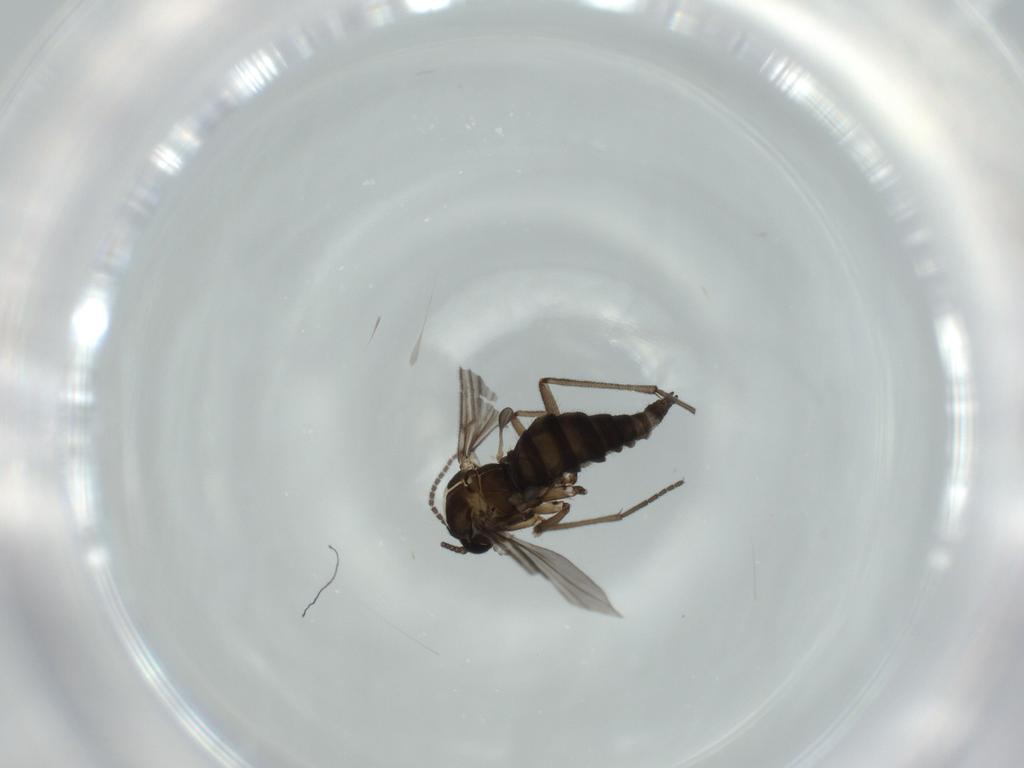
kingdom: Animalia
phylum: Arthropoda
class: Insecta
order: Diptera
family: Sciaridae
